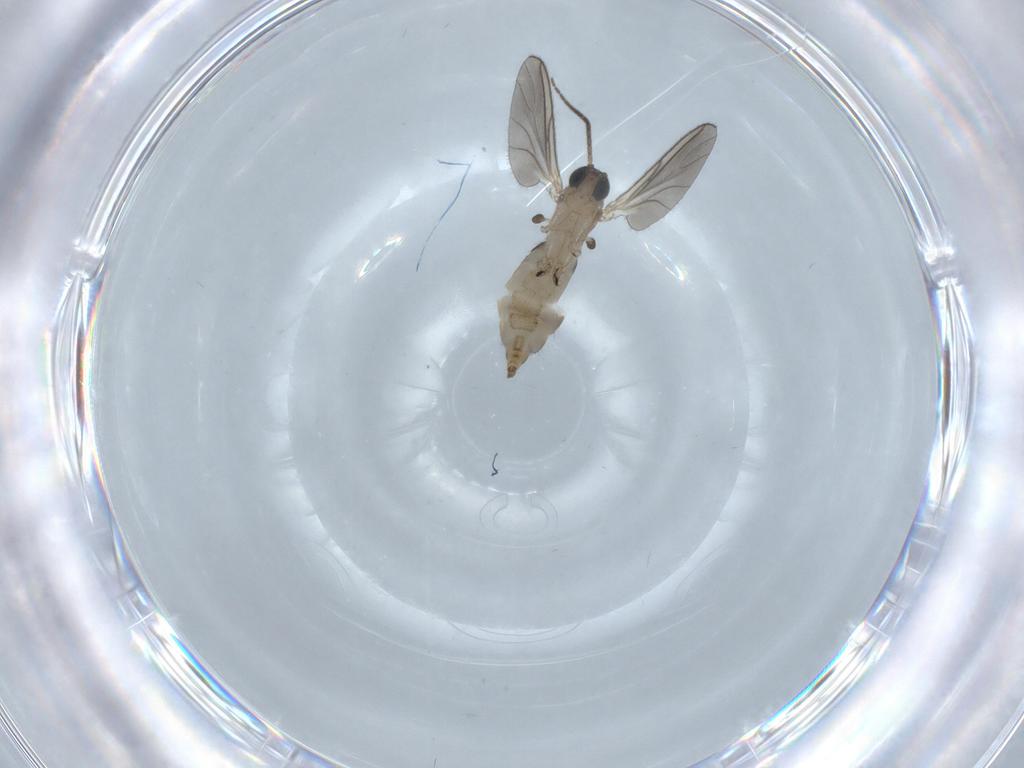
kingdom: Animalia
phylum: Arthropoda
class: Insecta
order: Diptera
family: Sciaridae
